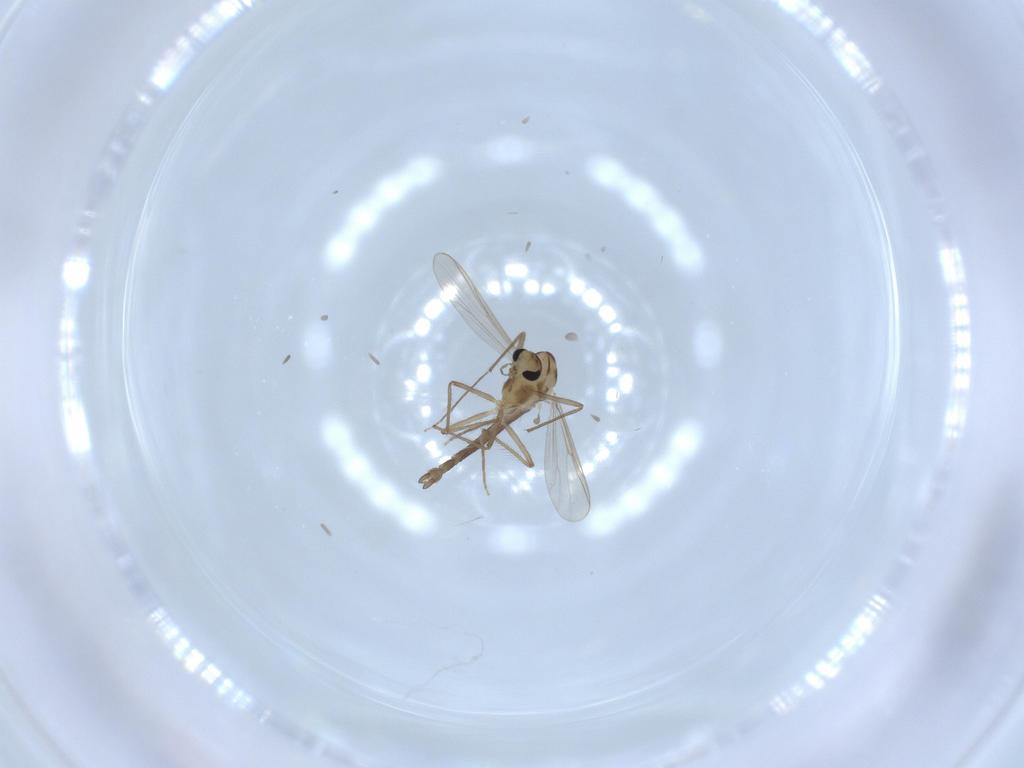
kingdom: Animalia
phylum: Arthropoda
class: Insecta
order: Diptera
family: Chironomidae
